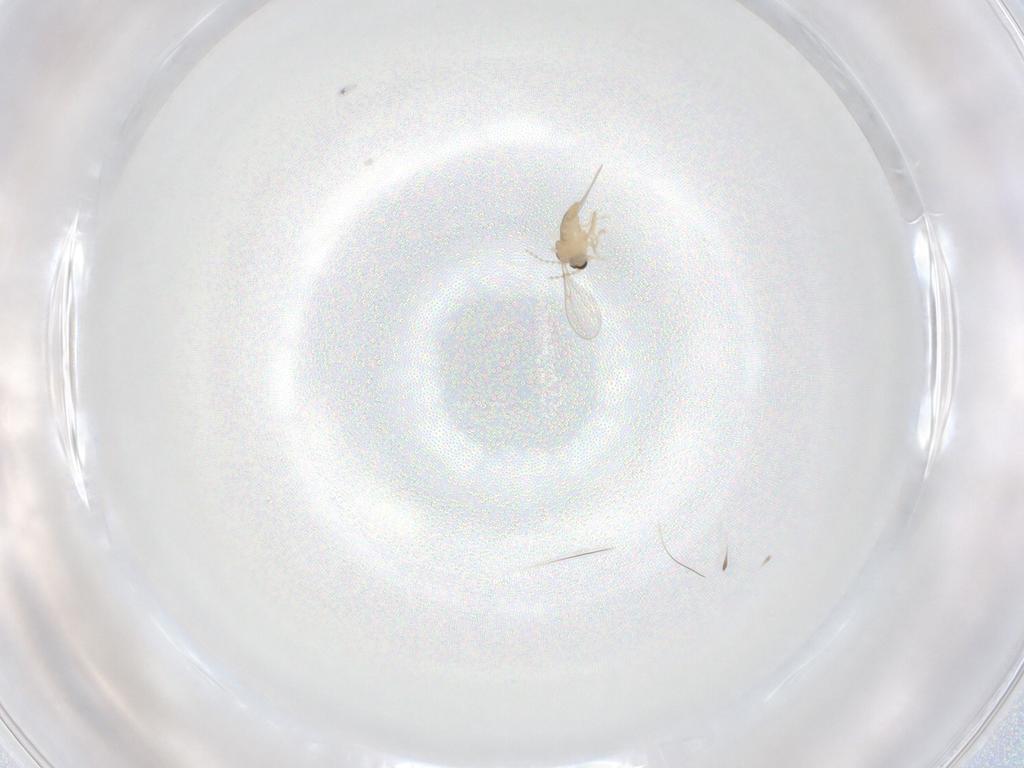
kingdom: Animalia
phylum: Arthropoda
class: Insecta
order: Diptera
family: Cecidomyiidae
